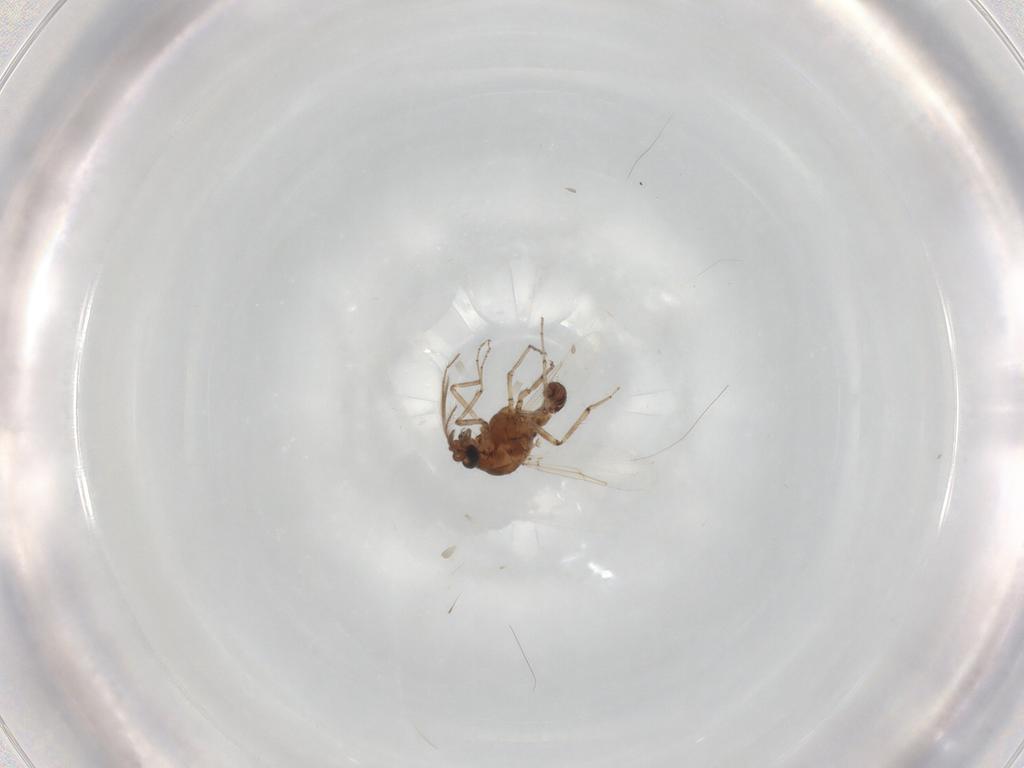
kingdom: Animalia
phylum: Arthropoda
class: Insecta
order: Diptera
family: Ceratopogonidae
